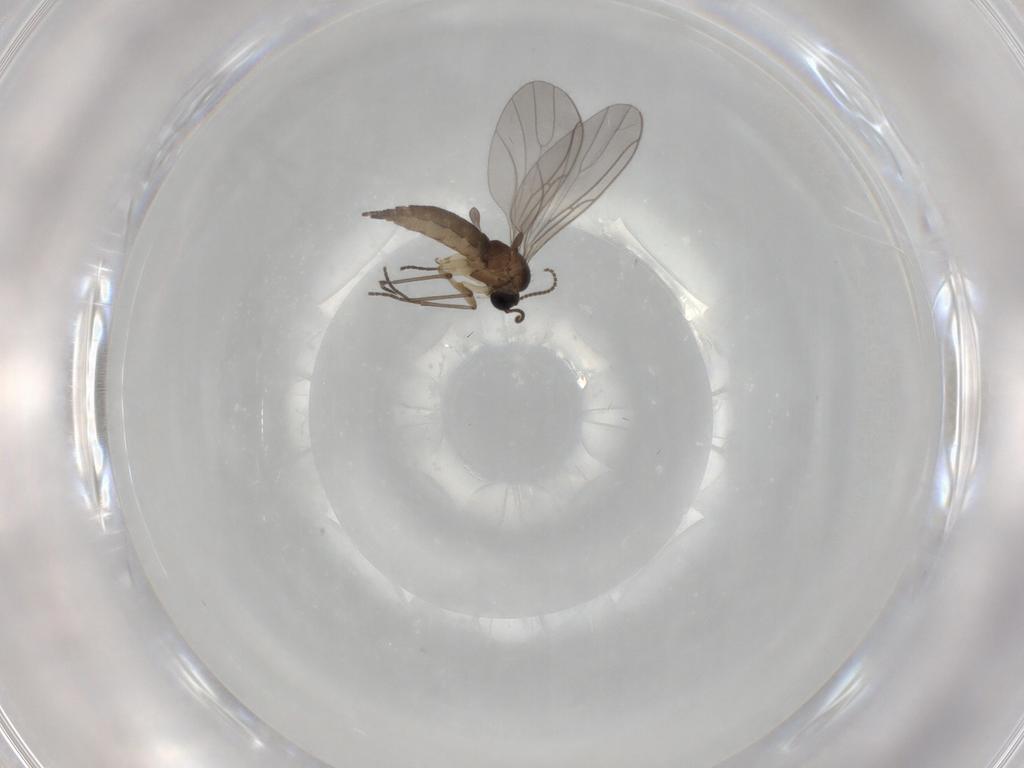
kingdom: Animalia
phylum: Arthropoda
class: Insecta
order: Diptera
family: Sciaridae
